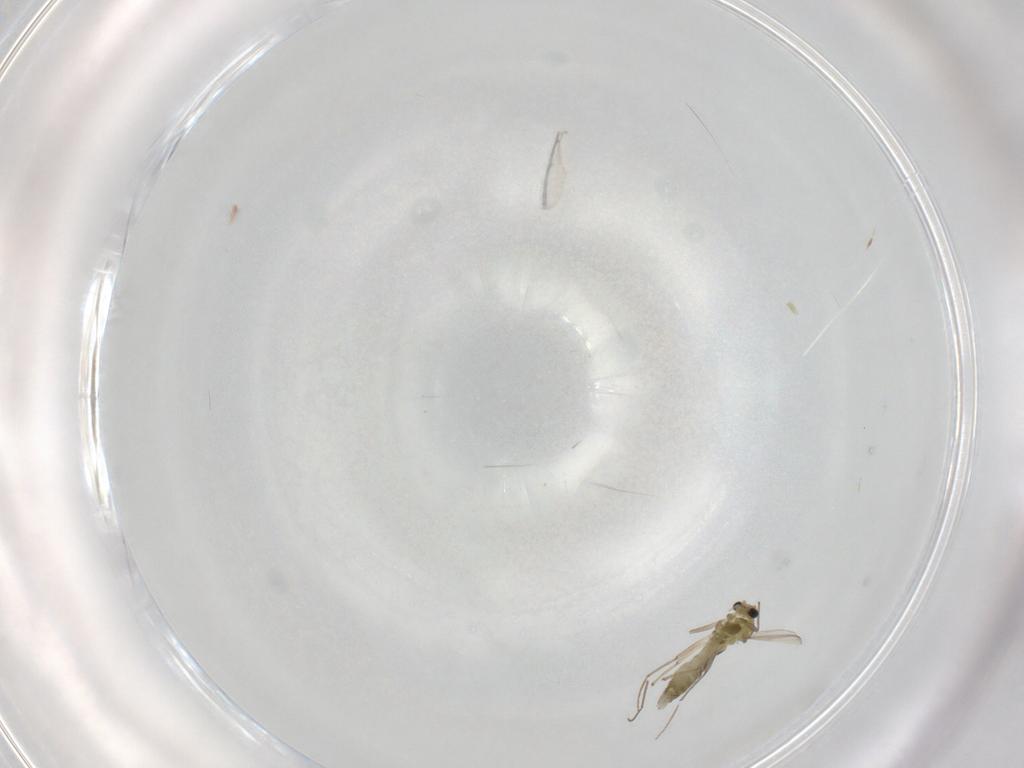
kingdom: Animalia
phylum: Arthropoda
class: Insecta
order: Diptera
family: Chironomidae
